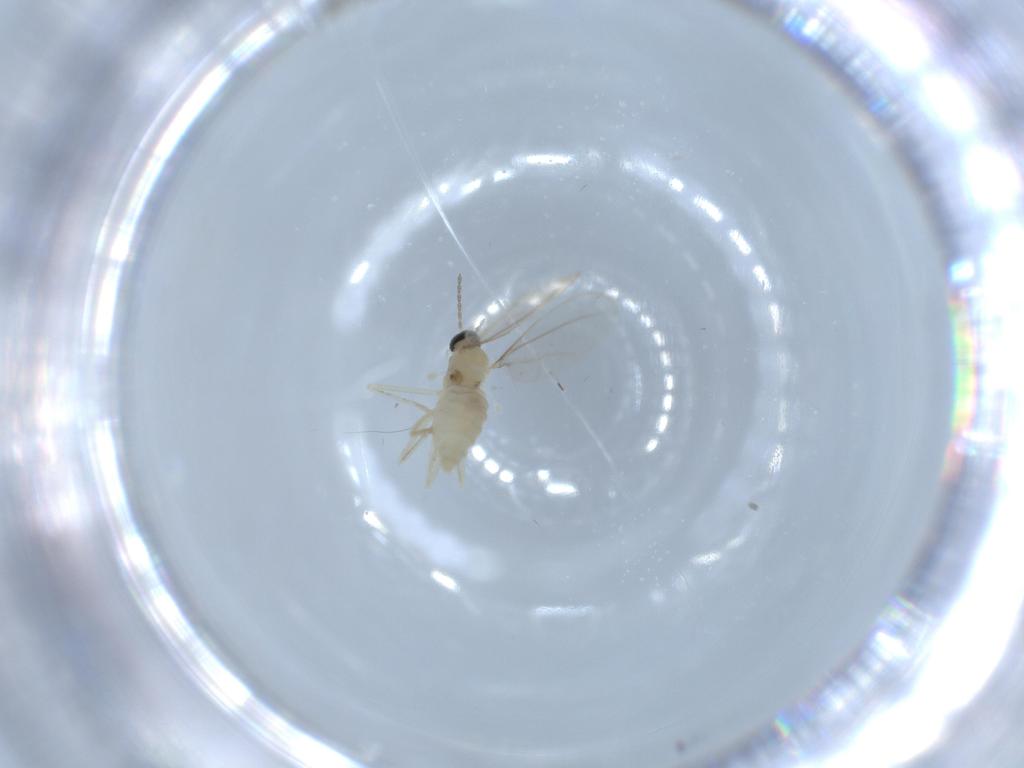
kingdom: Animalia
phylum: Arthropoda
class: Insecta
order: Diptera
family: Cecidomyiidae
